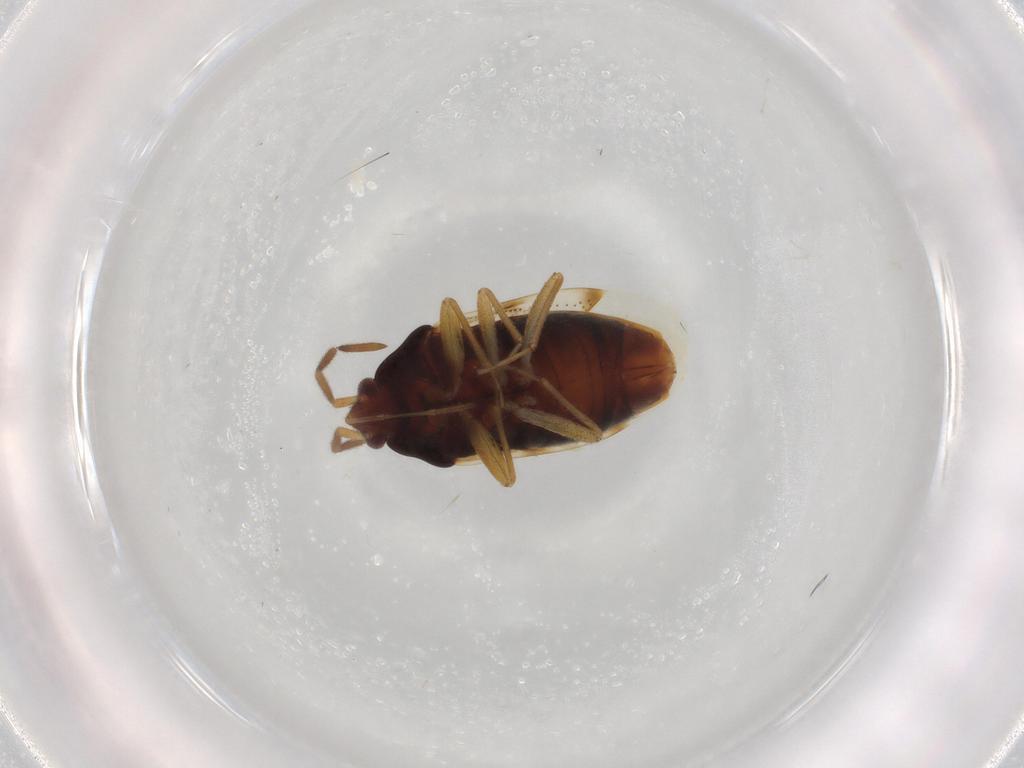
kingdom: Animalia
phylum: Arthropoda
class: Insecta
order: Hemiptera
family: Rhyparochromidae
